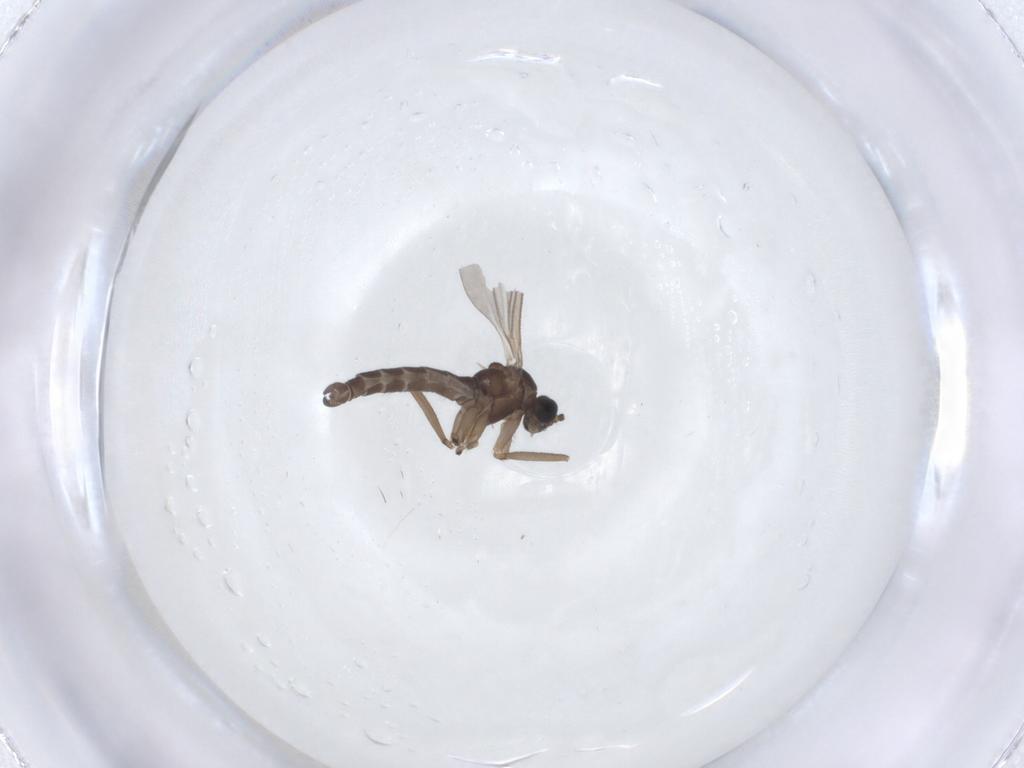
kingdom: Animalia
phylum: Arthropoda
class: Insecta
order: Diptera
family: Sciaridae
